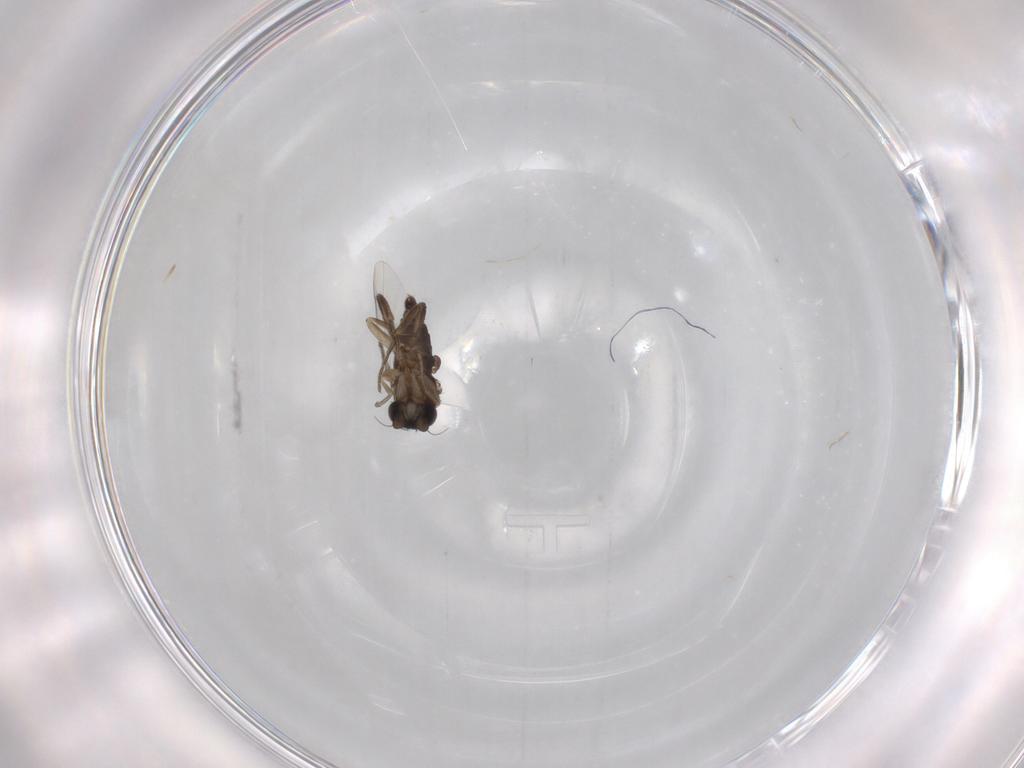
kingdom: Animalia
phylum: Arthropoda
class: Insecta
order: Diptera
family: Phoridae
